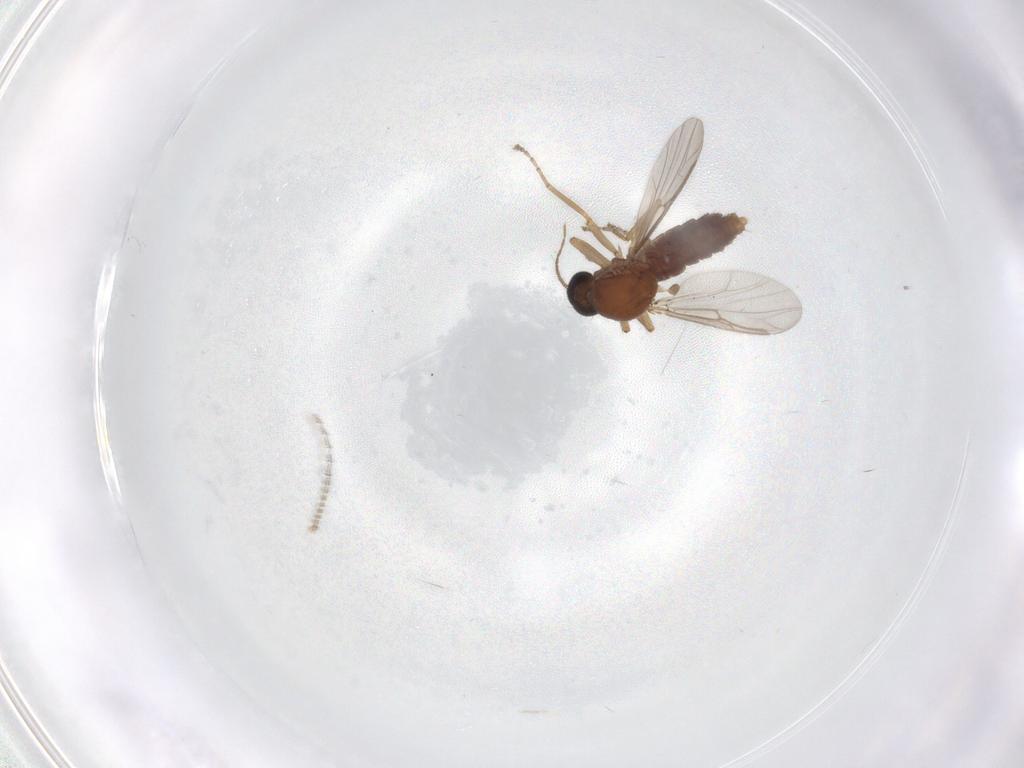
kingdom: Animalia
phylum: Arthropoda
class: Insecta
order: Diptera
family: Ceratopogonidae
